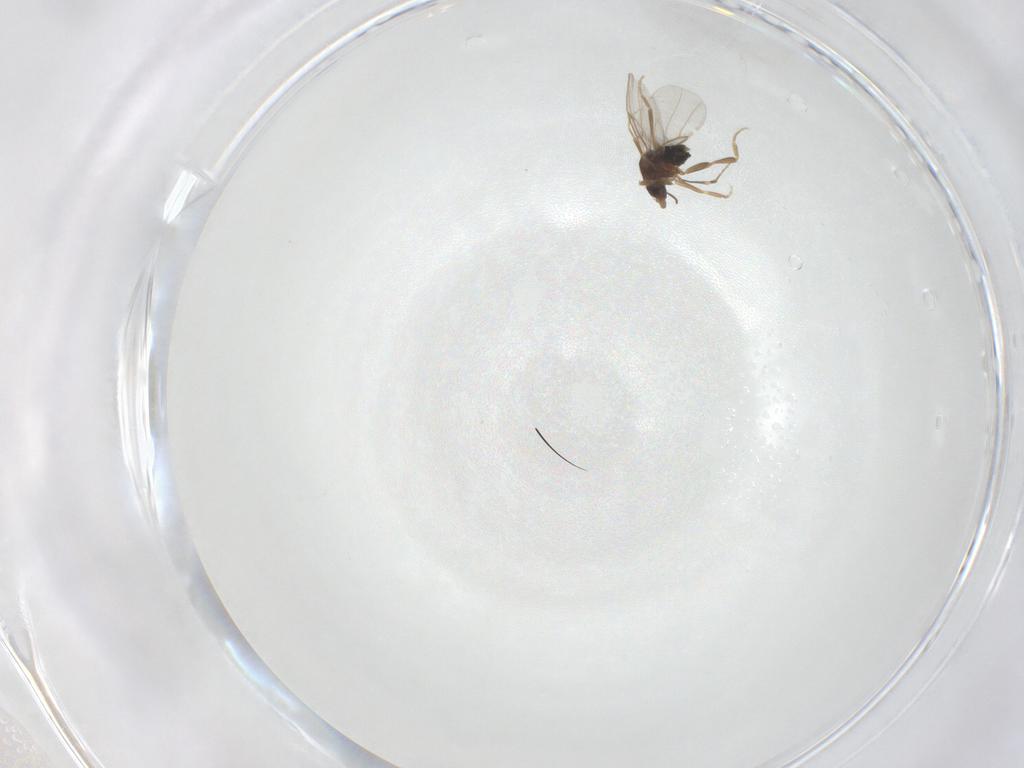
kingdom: Animalia
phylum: Arthropoda
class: Insecta
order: Diptera
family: Phoridae
